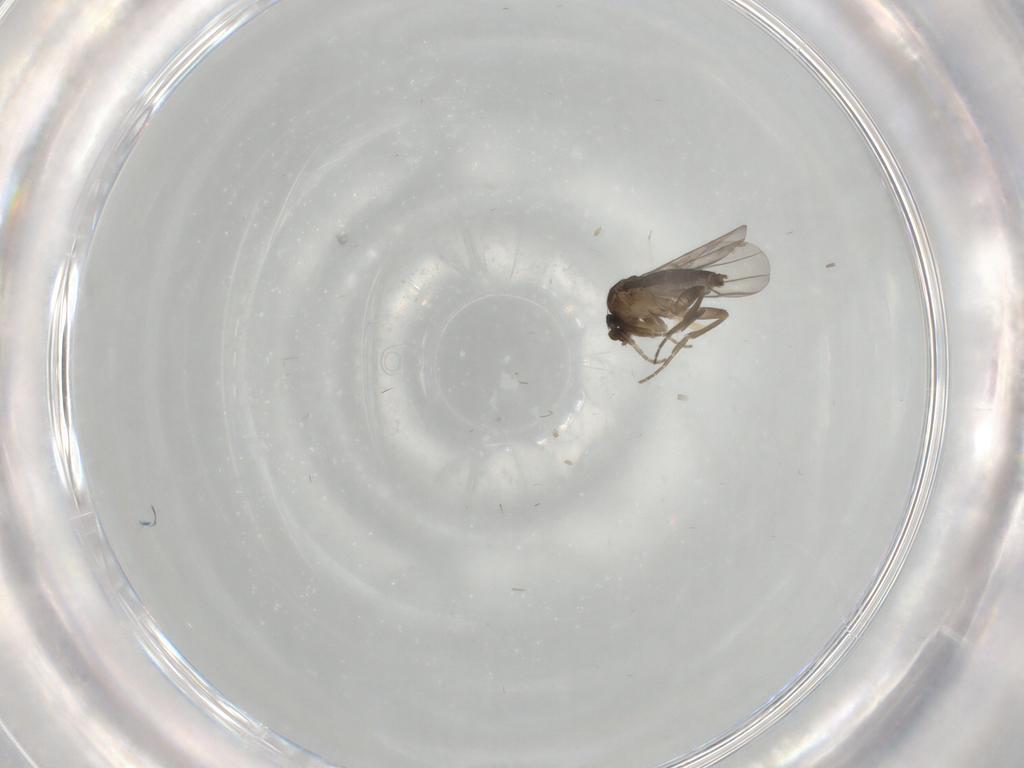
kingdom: Animalia
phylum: Arthropoda
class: Insecta
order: Diptera
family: Phoridae
